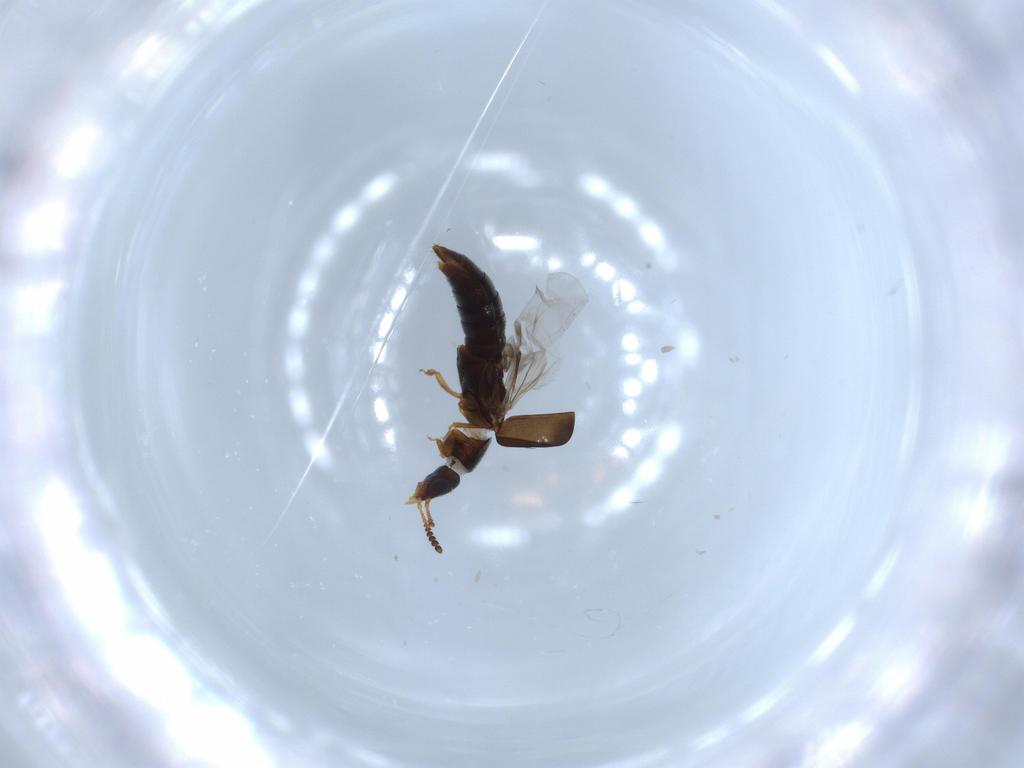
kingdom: Animalia
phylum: Arthropoda
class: Insecta
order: Coleoptera
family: Staphylinidae
